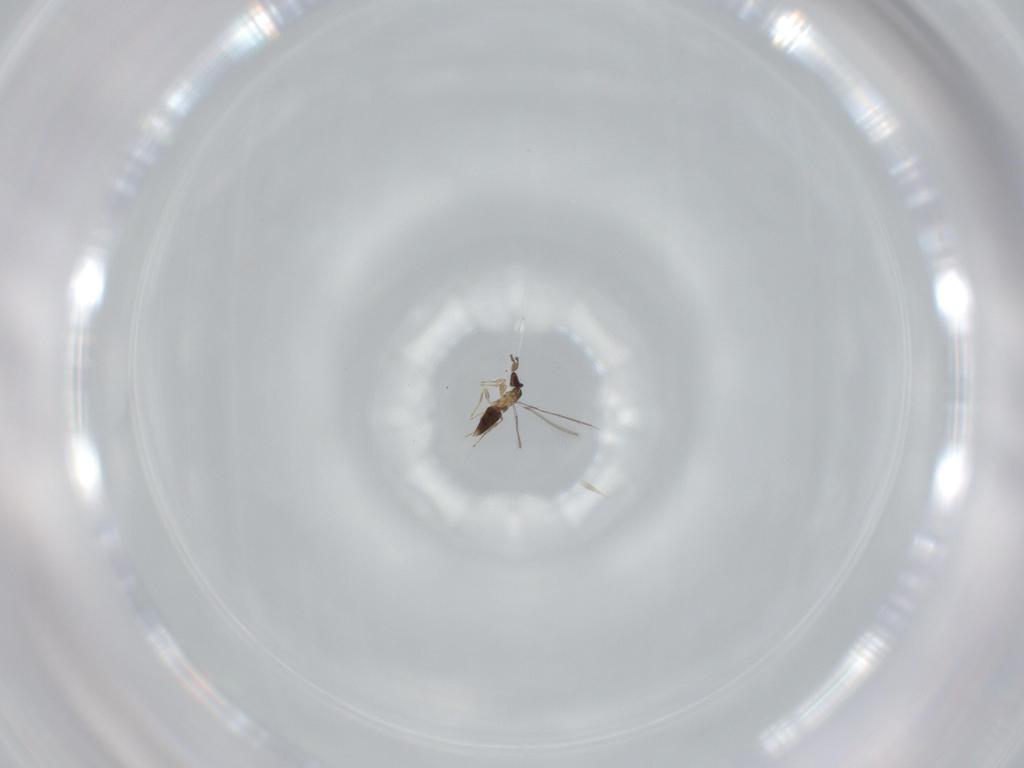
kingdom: Animalia
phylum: Arthropoda
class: Insecta
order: Hymenoptera
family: Mymaridae
